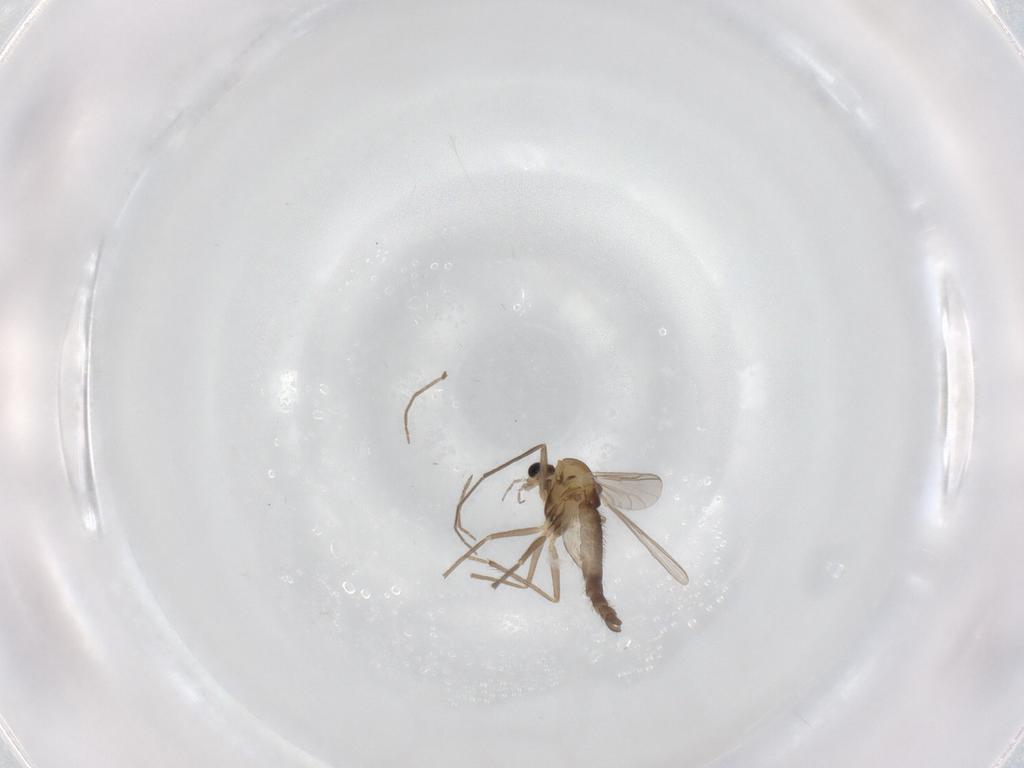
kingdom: Animalia
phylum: Arthropoda
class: Insecta
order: Diptera
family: Chironomidae
